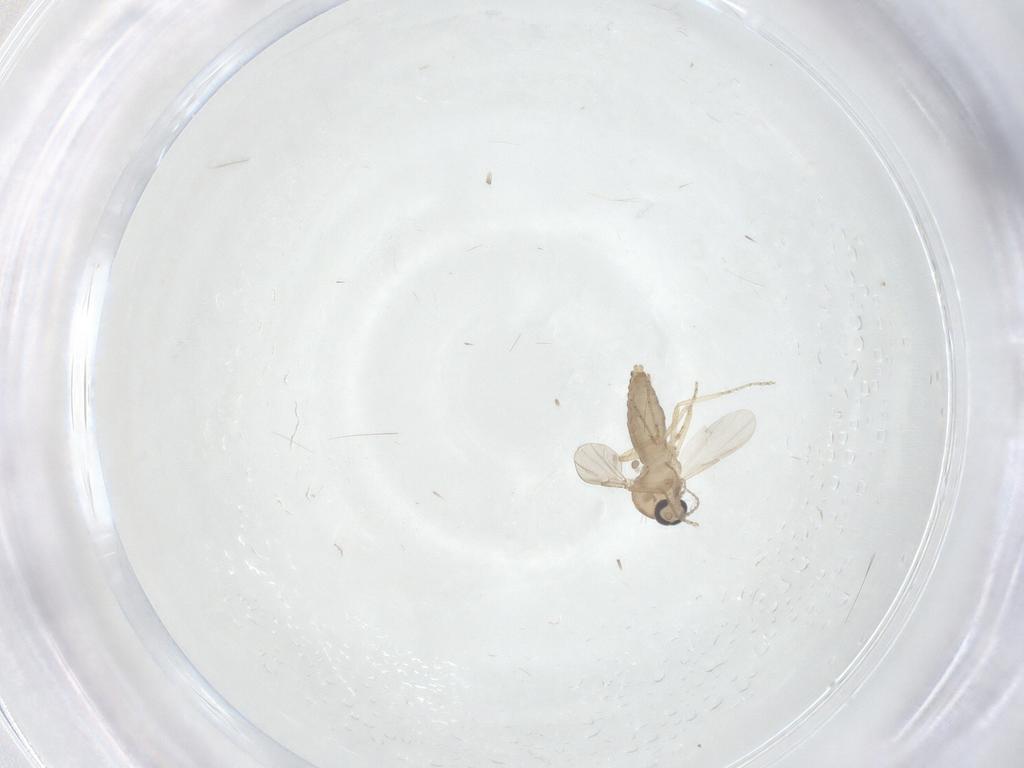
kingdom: Animalia
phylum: Arthropoda
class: Insecta
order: Diptera
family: Ceratopogonidae
